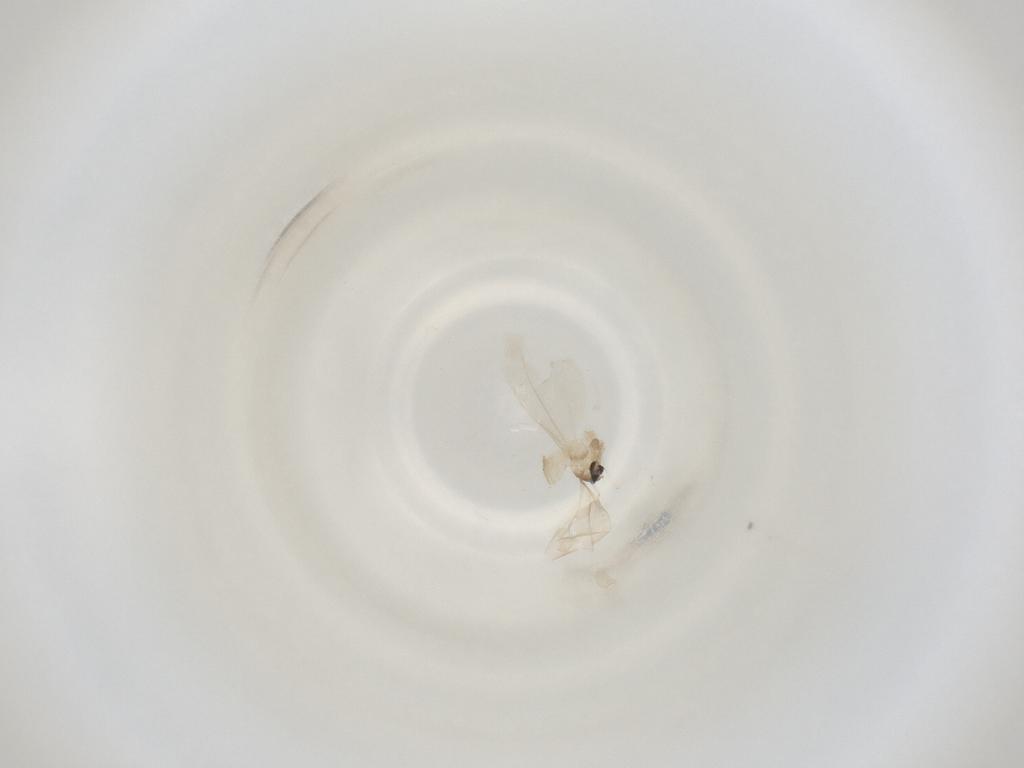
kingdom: Animalia
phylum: Arthropoda
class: Insecta
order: Diptera
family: Cecidomyiidae
